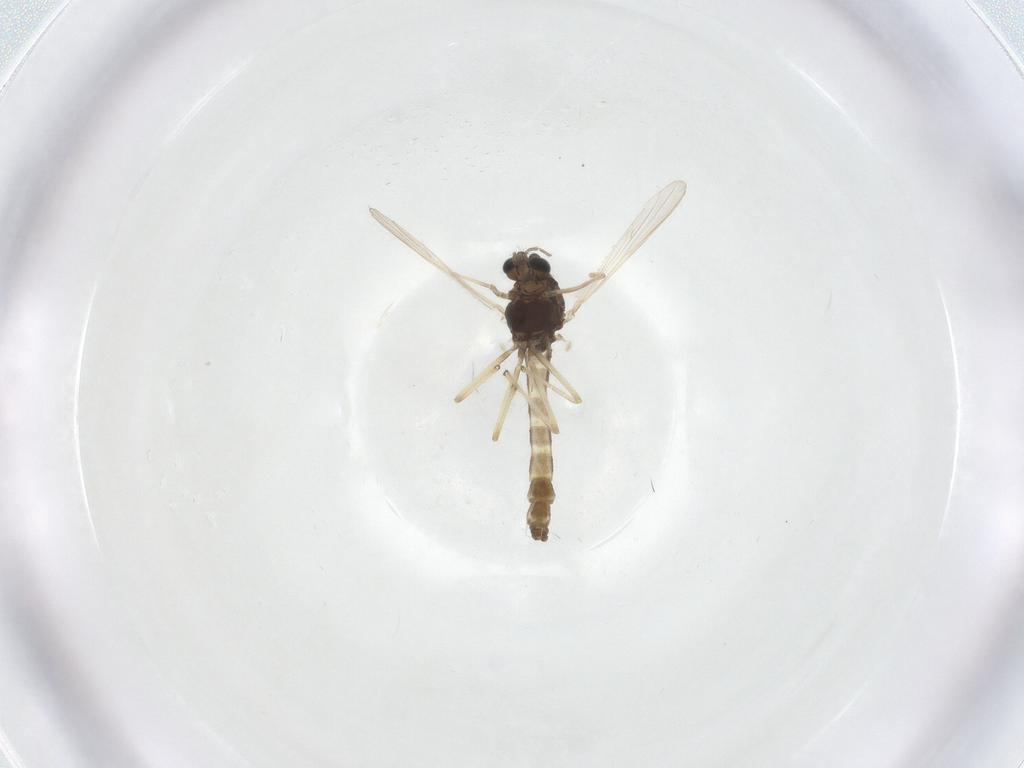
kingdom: Animalia
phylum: Arthropoda
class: Insecta
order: Diptera
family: Chironomidae
